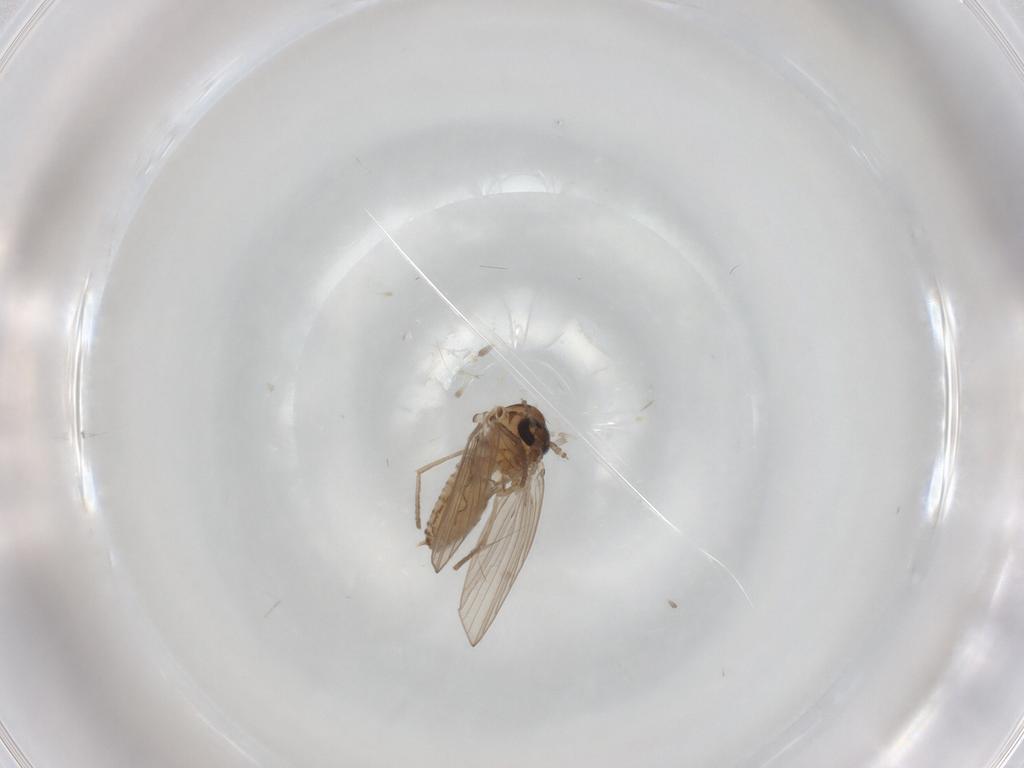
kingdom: Animalia
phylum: Arthropoda
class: Insecta
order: Diptera
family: Psychodidae
